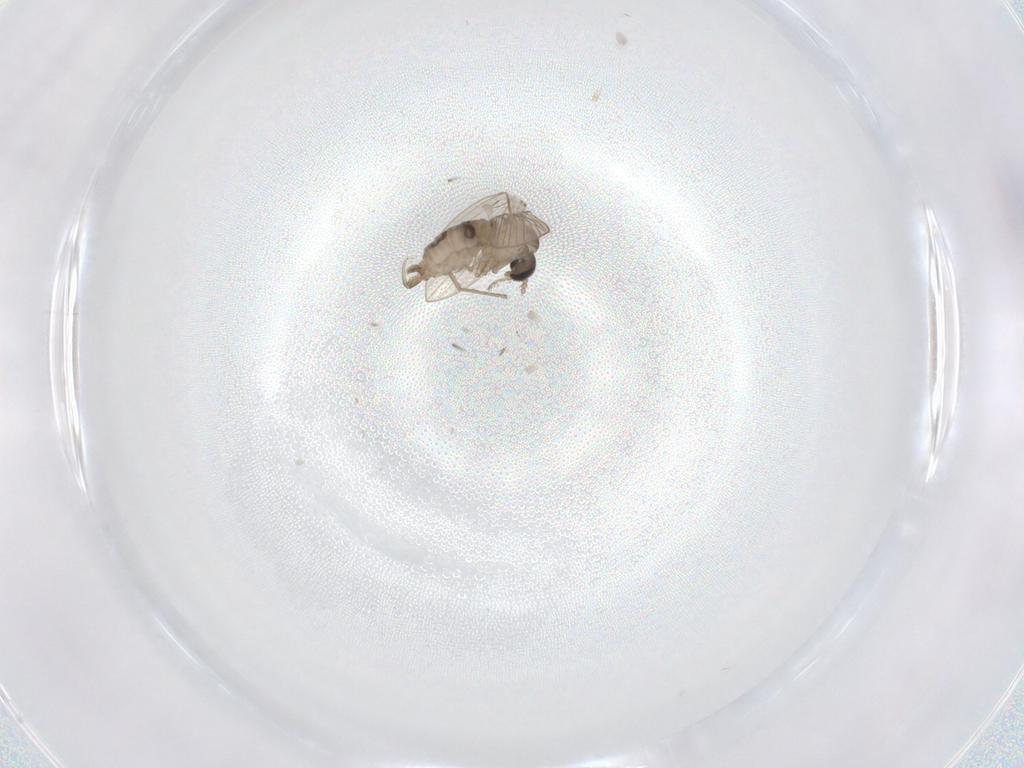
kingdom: Animalia
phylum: Arthropoda
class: Insecta
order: Diptera
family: Psychodidae
